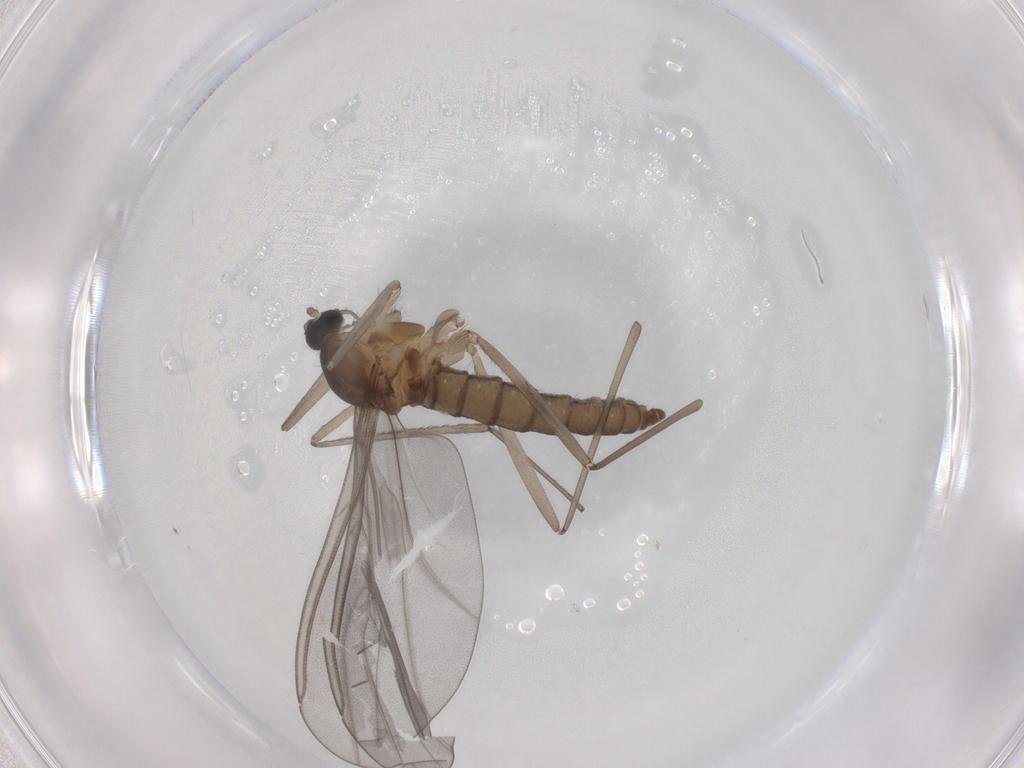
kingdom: Animalia
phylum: Arthropoda
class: Insecta
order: Diptera
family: Cecidomyiidae
